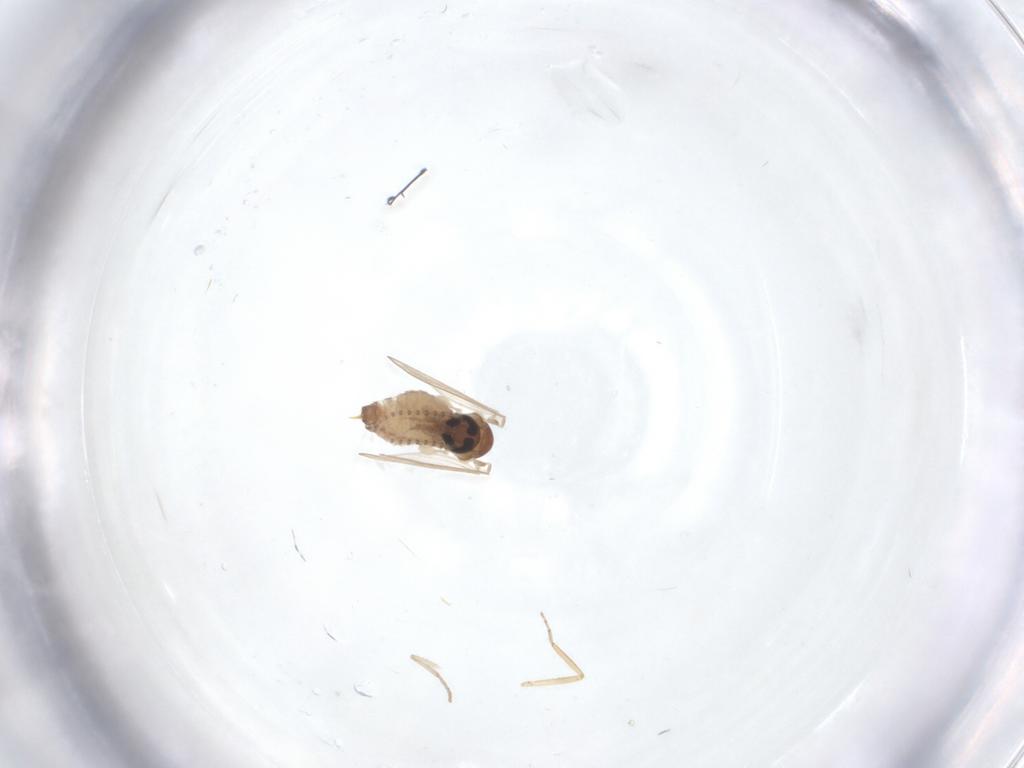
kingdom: Animalia
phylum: Arthropoda
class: Insecta
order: Diptera
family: Psychodidae
